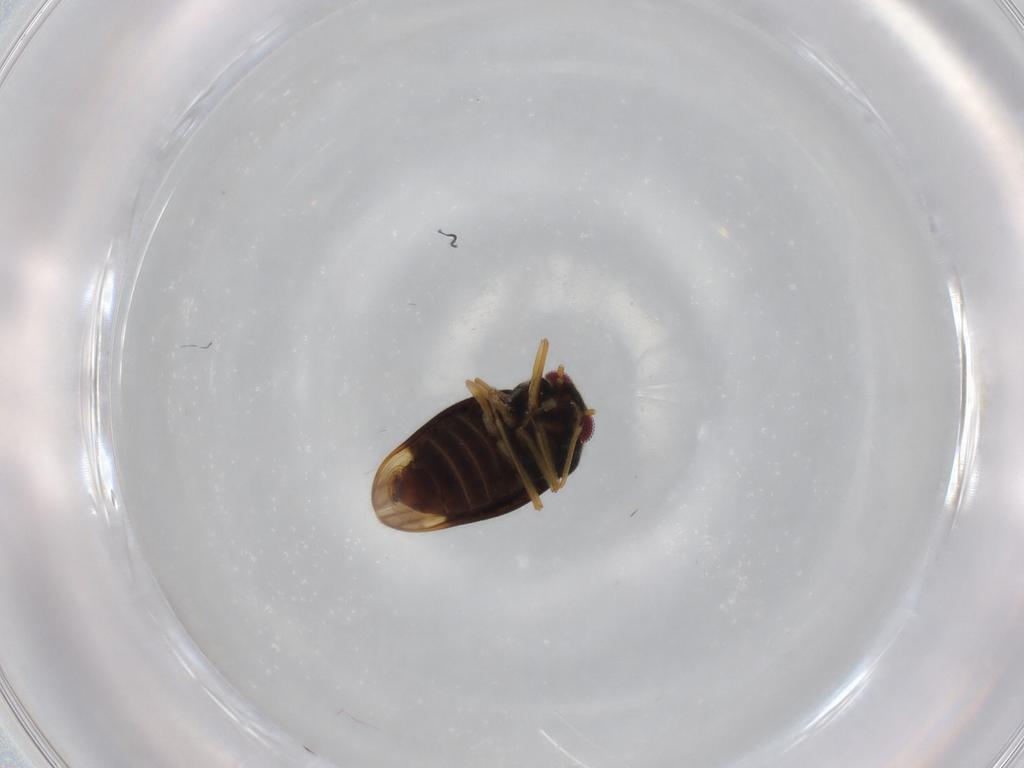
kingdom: Animalia
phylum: Arthropoda
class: Insecta
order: Hemiptera
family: Schizopteridae
